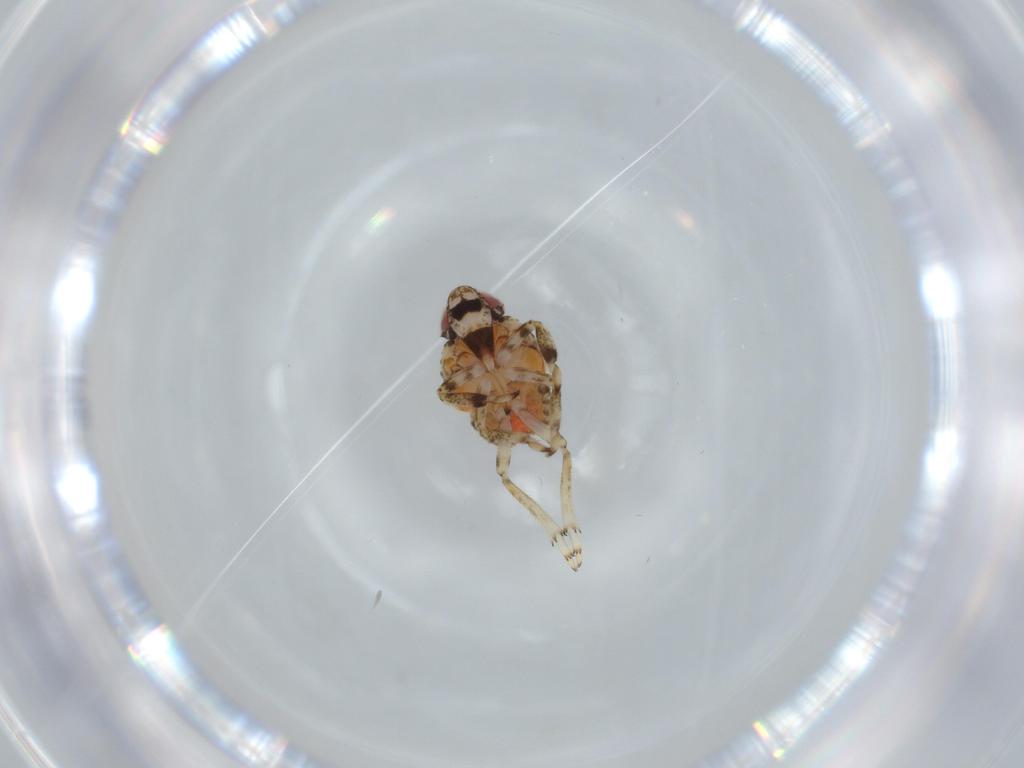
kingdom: Animalia
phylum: Arthropoda
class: Insecta
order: Hemiptera
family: Issidae
